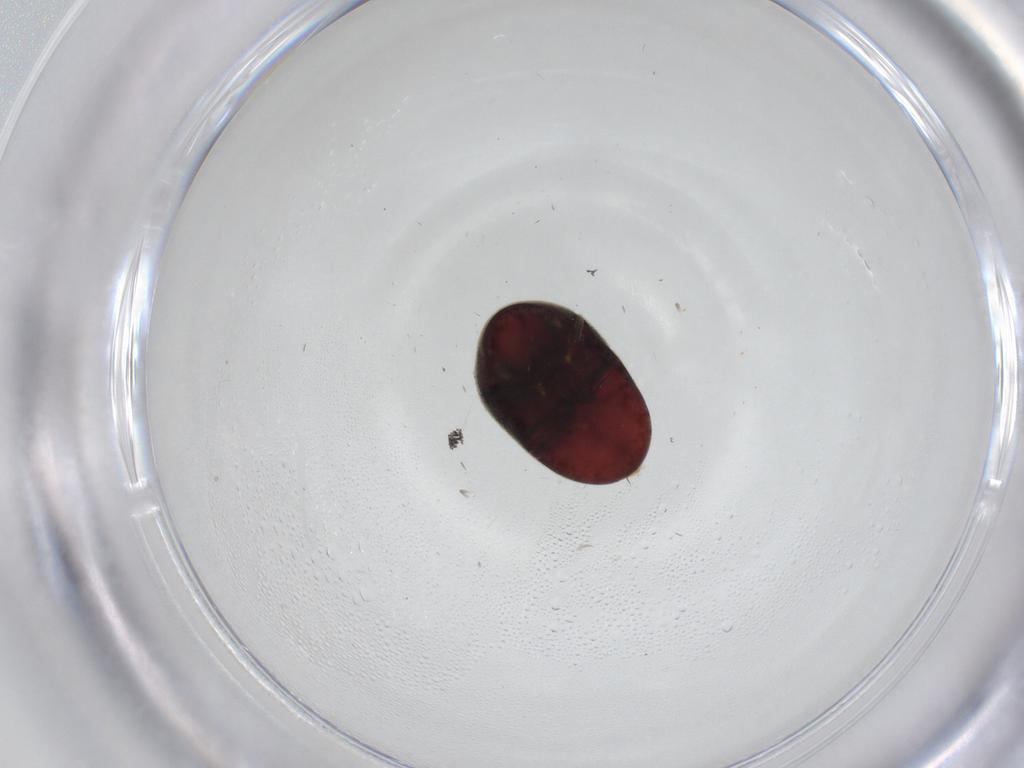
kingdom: Animalia
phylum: Arthropoda
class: Insecta
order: Coleoptera
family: Ptinidae
